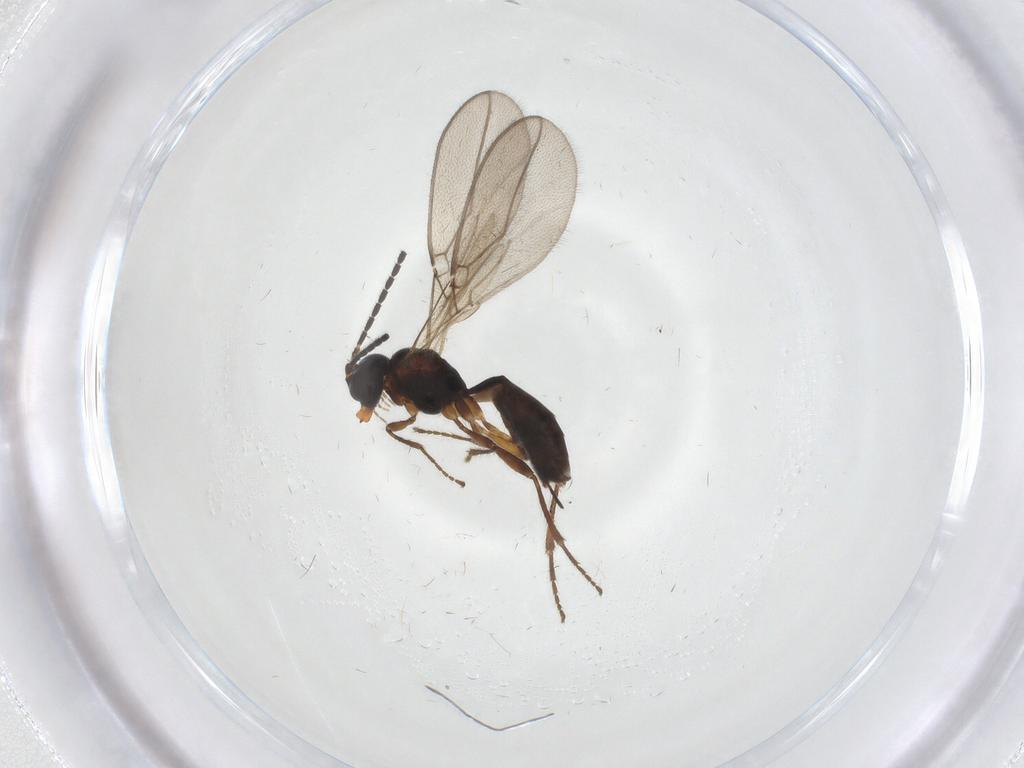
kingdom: Animalia
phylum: Arthropoda
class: Insecta
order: Hymenoptera
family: Braconidae
